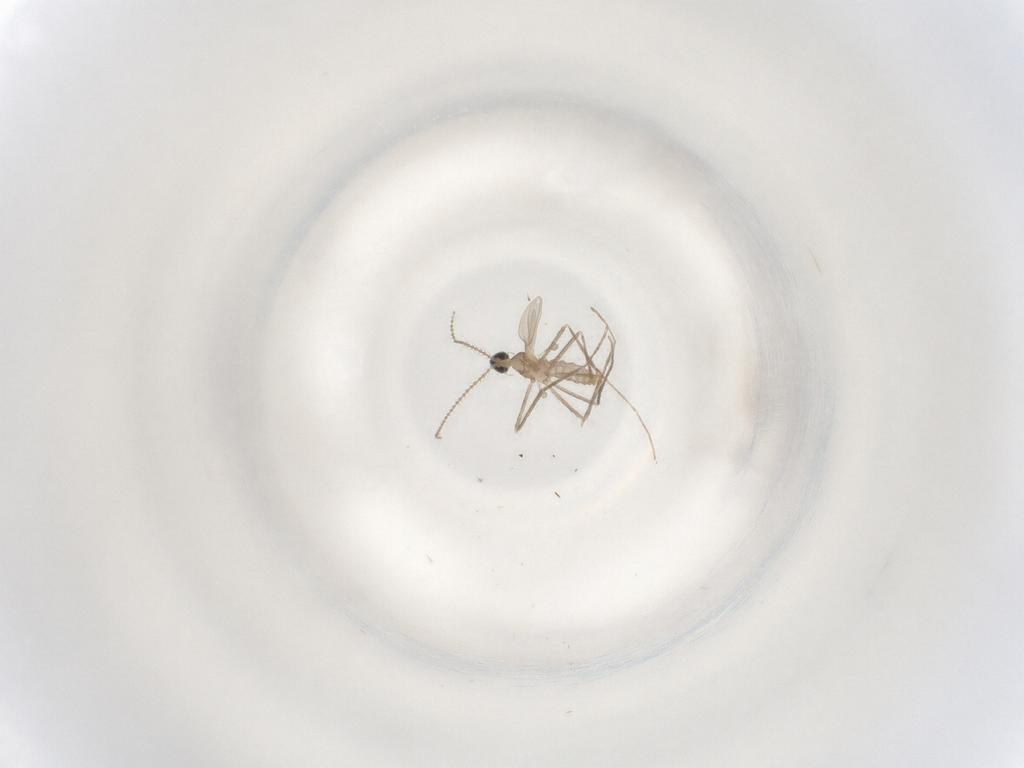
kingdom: Animalia
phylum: Arthropoda
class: Insecta
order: Diptera
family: Cecidomyiidae
